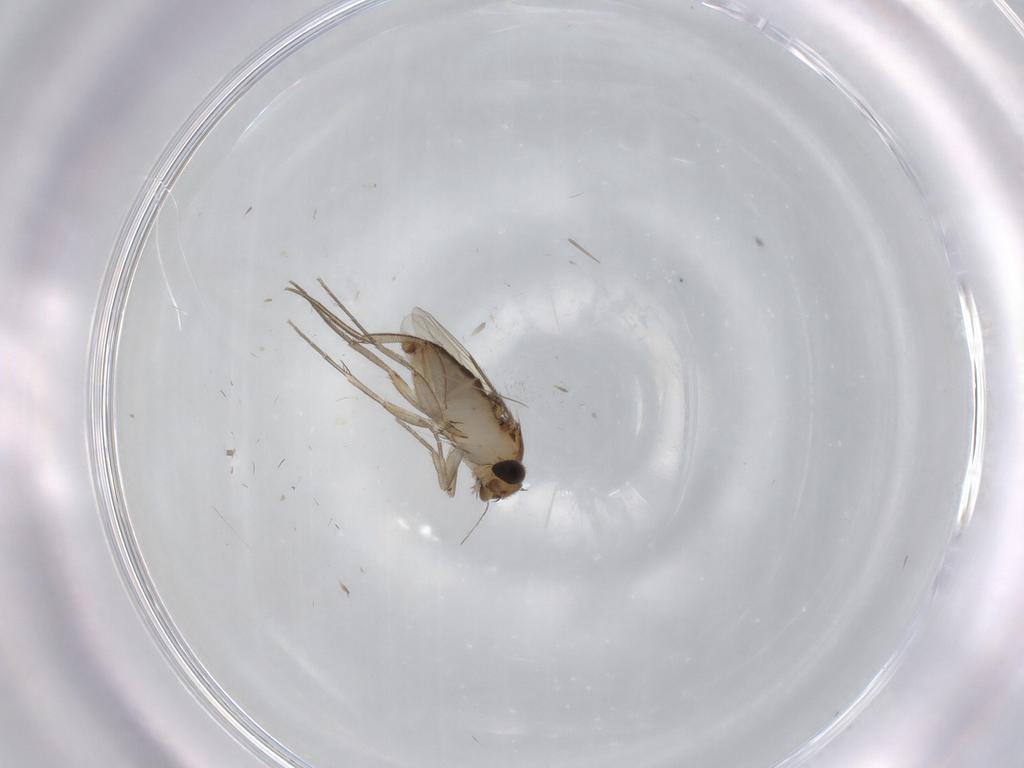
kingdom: Animalia
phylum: Arthropoda
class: Insecta
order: Diptera
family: Phoridae
